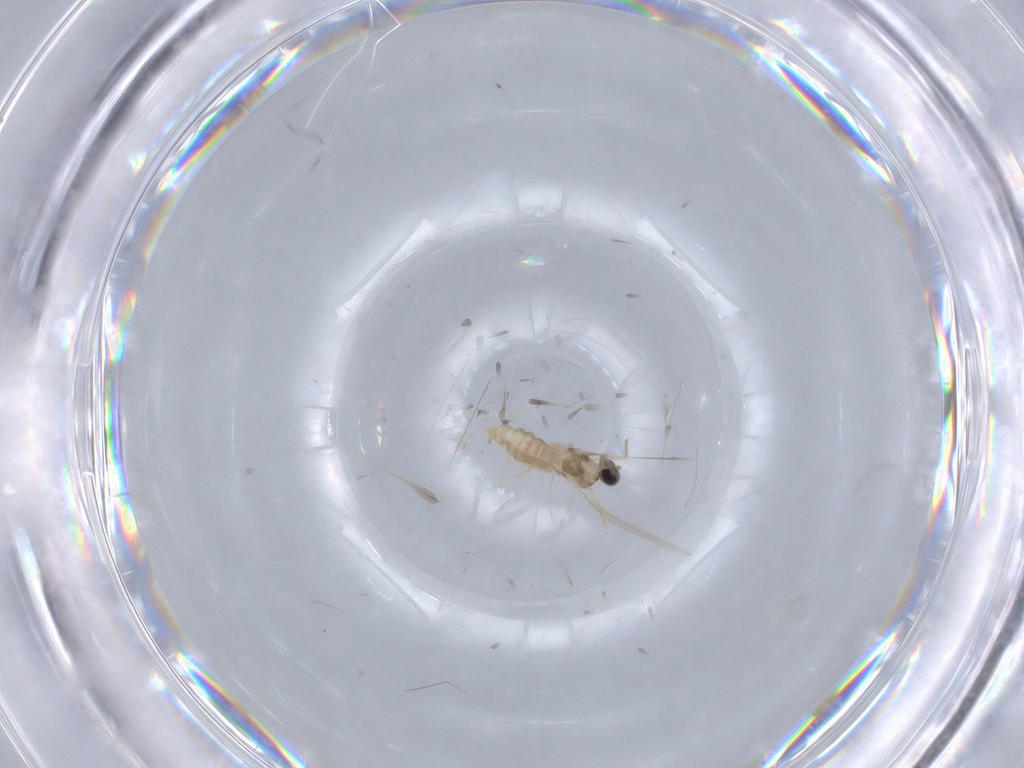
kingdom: Animalia
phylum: Arthropoda
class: Insecta
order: Diptera
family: Cecidomyiidae
